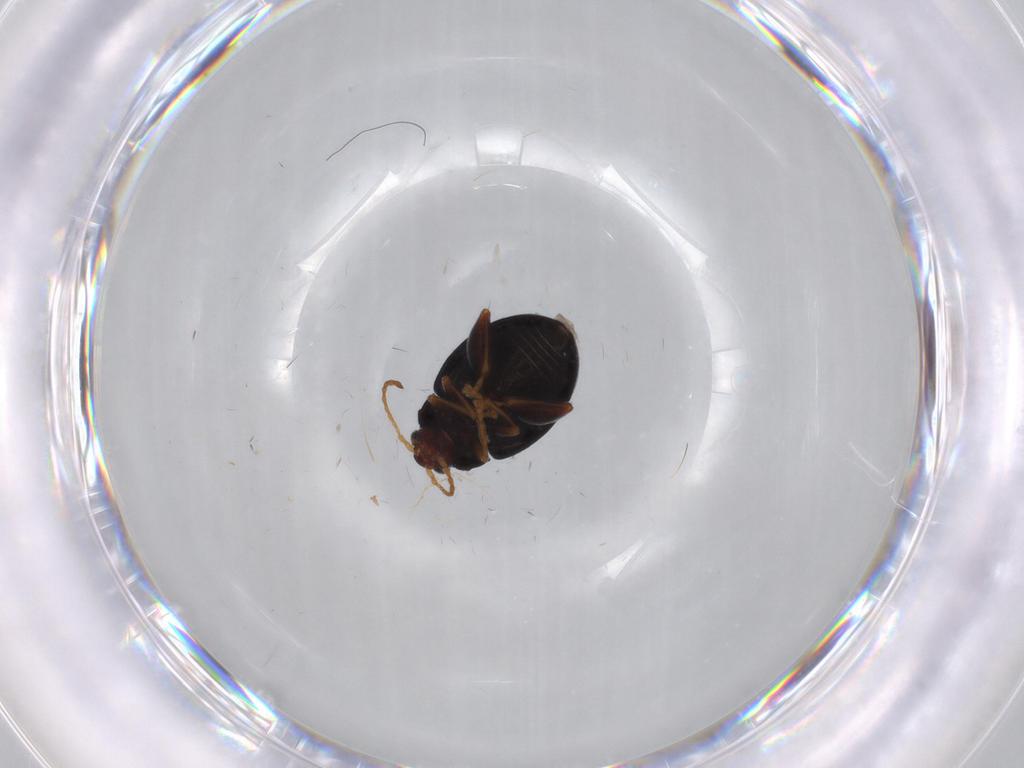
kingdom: Animalia
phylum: Arthropoda
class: Insecta
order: Coleoptera
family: Chrysomelidae
